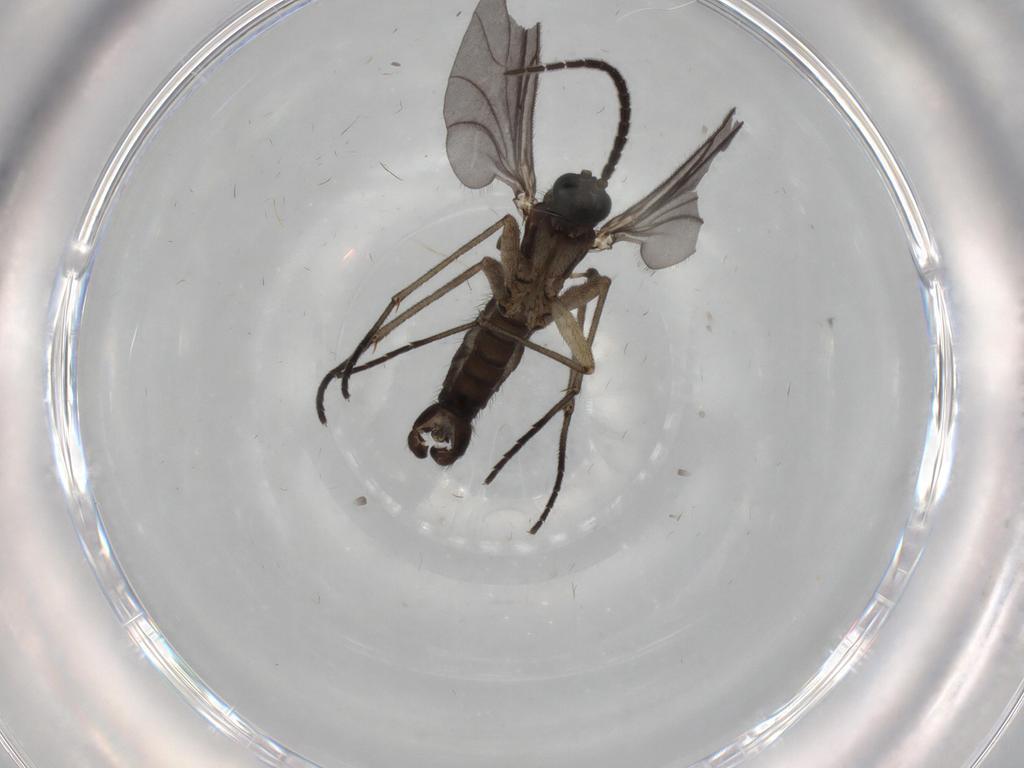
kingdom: Animalia
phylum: Arthropoda
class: Insecta
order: Diptera
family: Sciaridae
